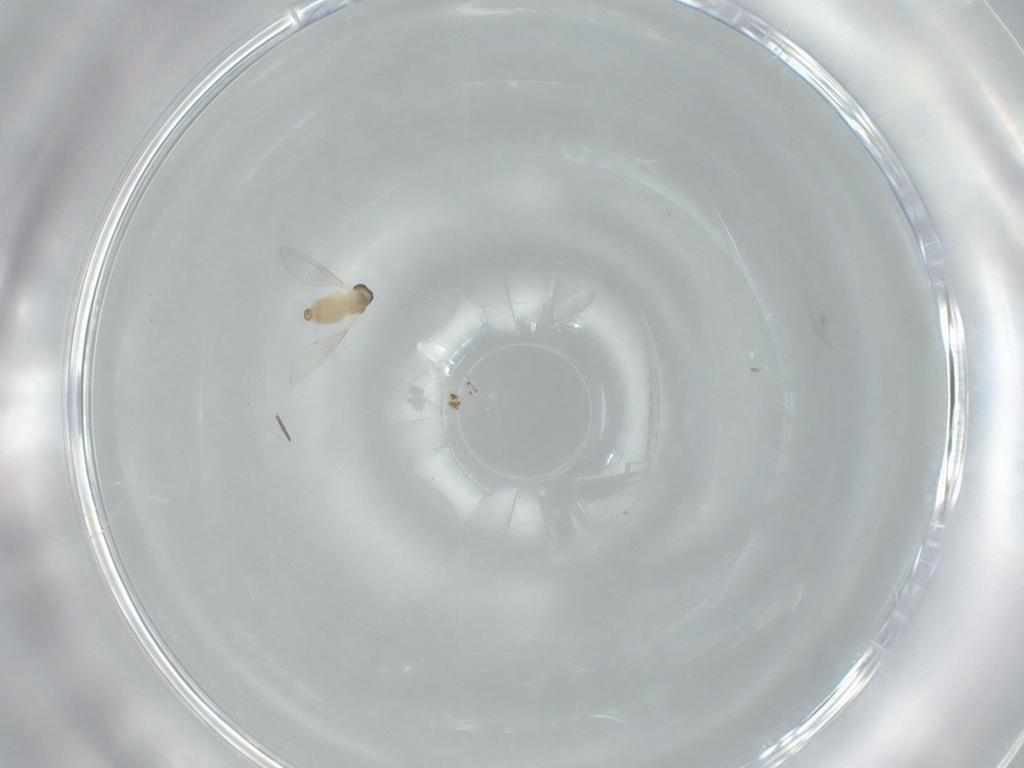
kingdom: Animalia
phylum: Arthropoda
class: Insecta
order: Diptera
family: Cecidomyiidae
